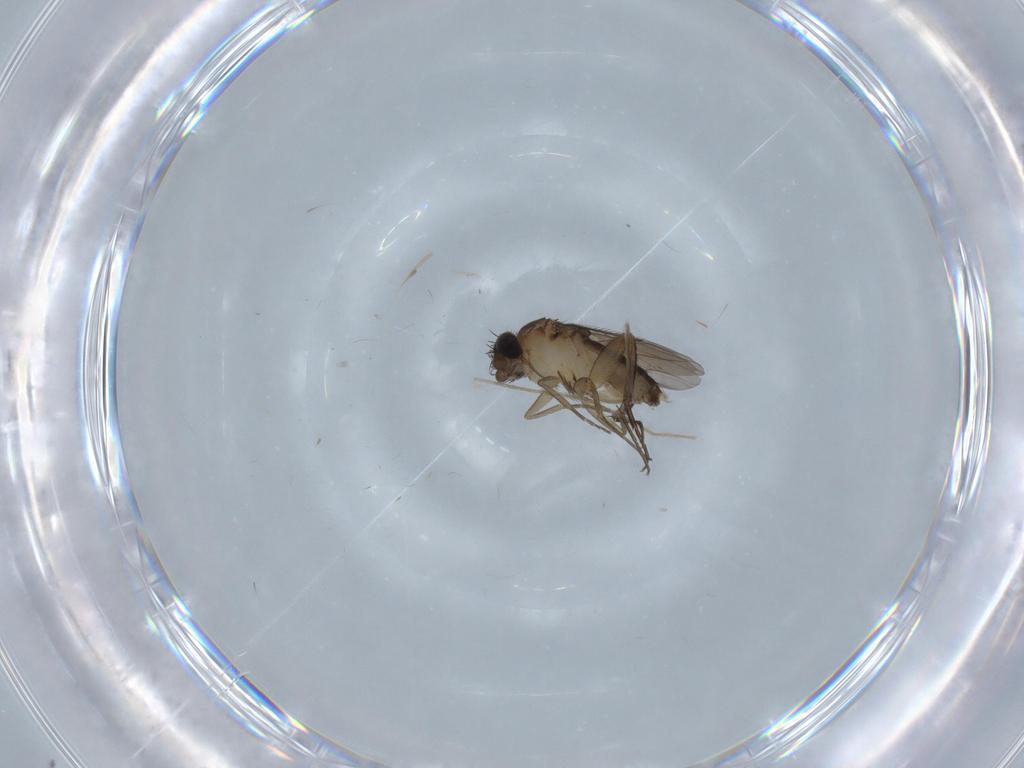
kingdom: Animalia
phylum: Arthropoda
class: Insecta
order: Diptera
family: Phoridae
